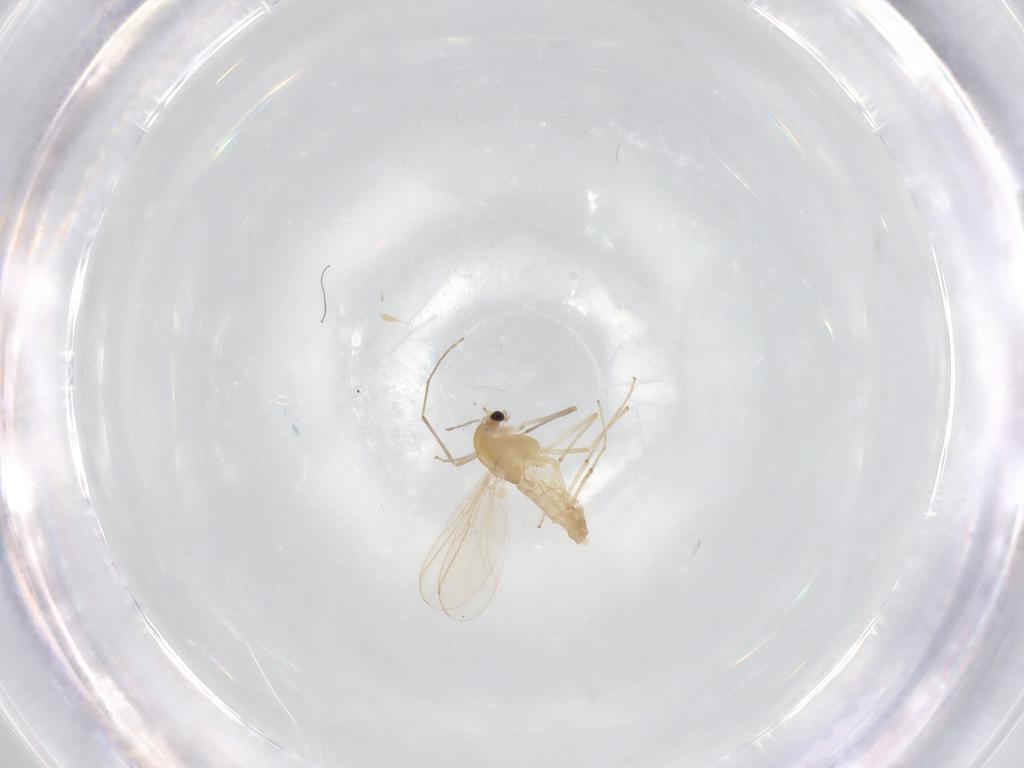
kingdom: Animalia
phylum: Arthropoda
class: Insecta
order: Diptera
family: Chironomidae
